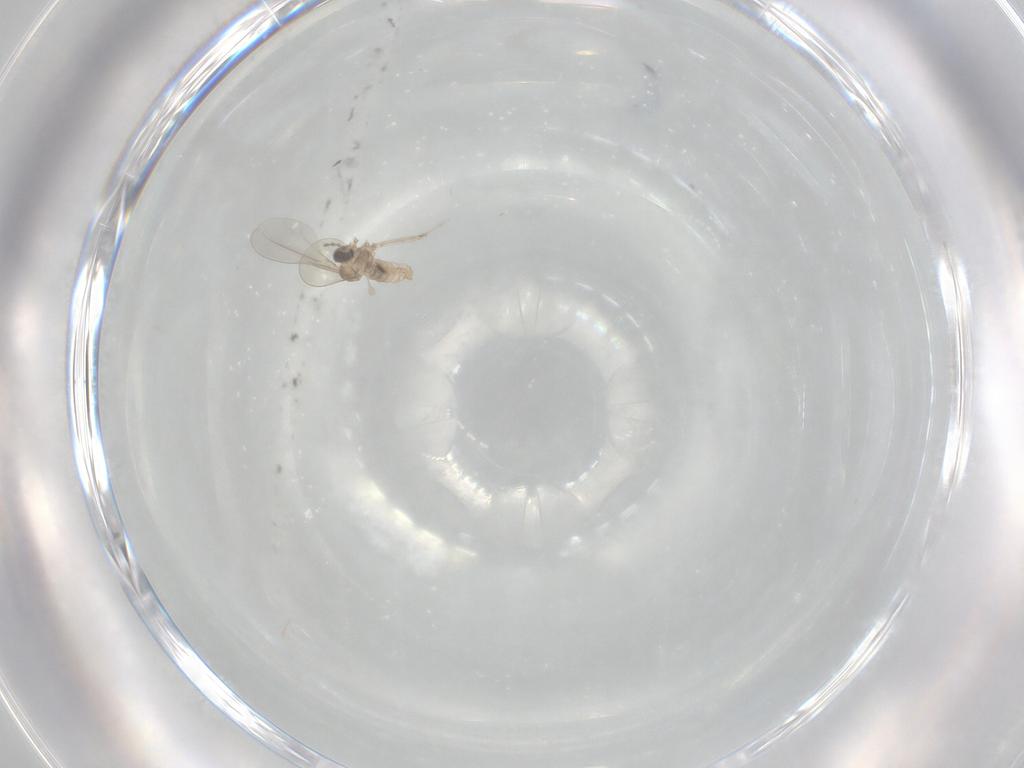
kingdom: Animalia
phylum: Arthropoda
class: Insecta
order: Diptera
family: Cecidomyiidae
